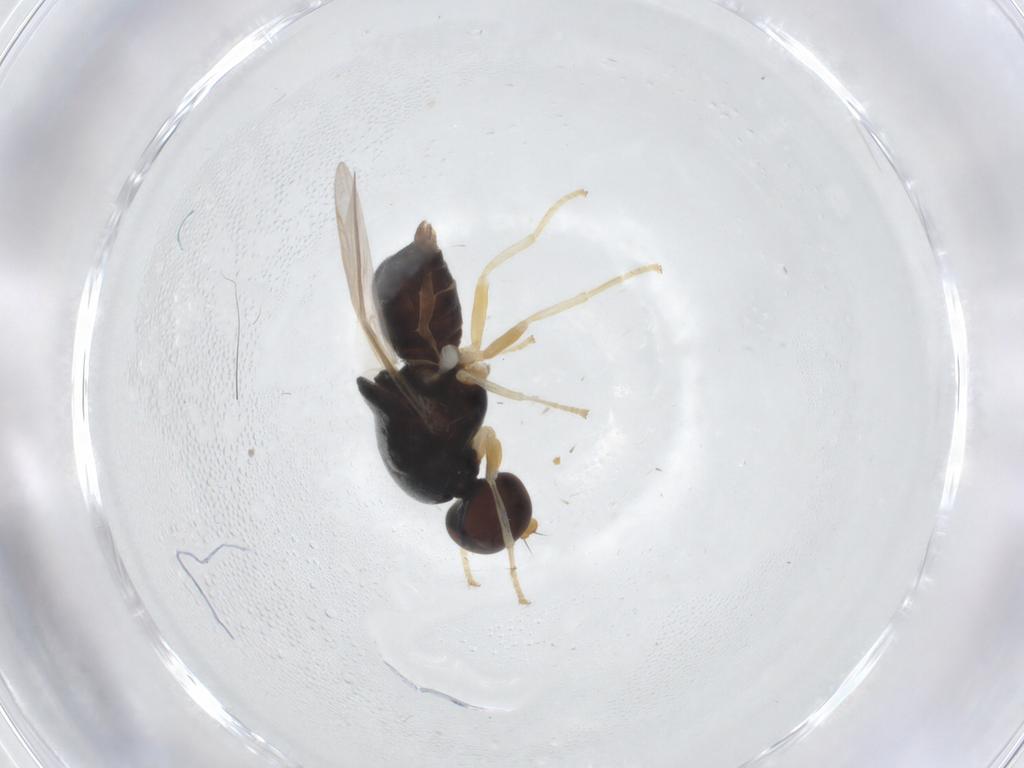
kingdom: Animalia
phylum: Arthropoda
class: Insecta
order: Diptera
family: Stratiomyidae
